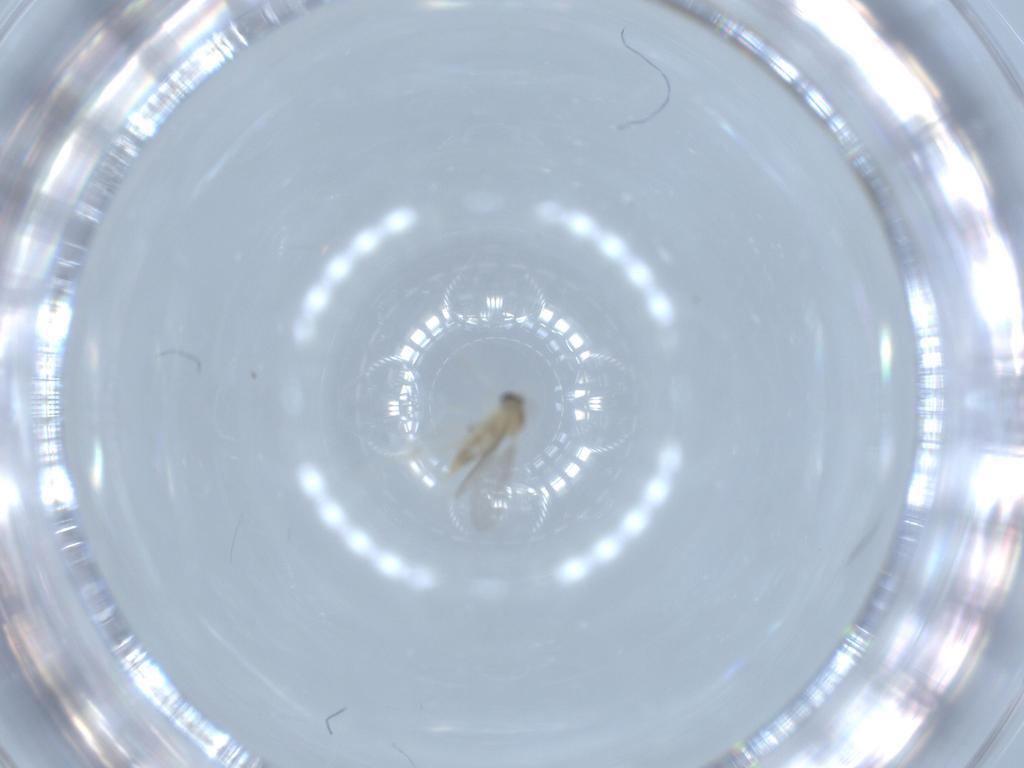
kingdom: Animalia
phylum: Arthropoda
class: Insecta
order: Diptera
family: Cecidomyiidae
